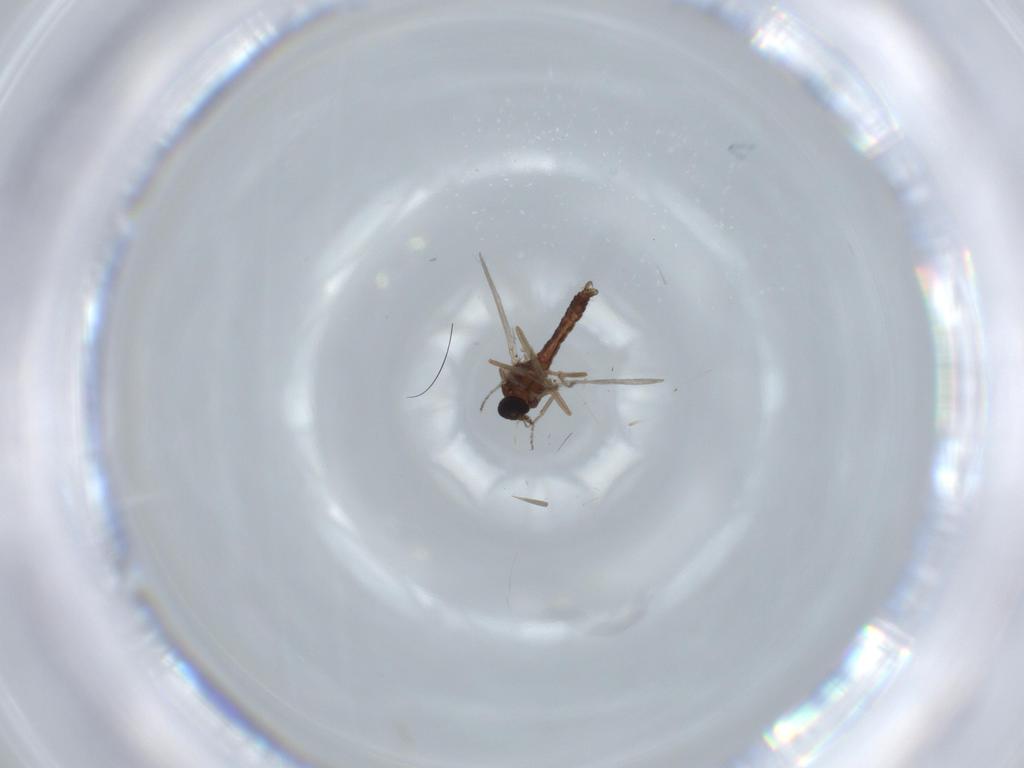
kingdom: Animalia
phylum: Arthropoda
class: Insecta
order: Diptera
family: Ceratopogonidae
